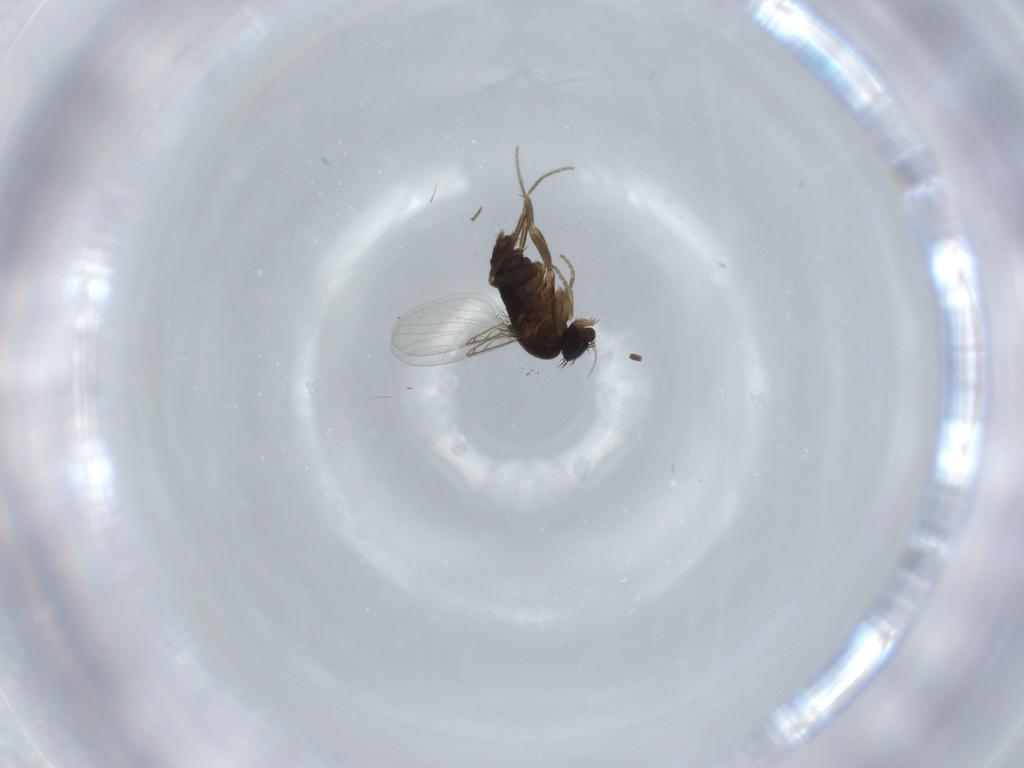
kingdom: Animalia
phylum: Arthropoda
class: Insecta
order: Diptera
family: Phoridae
